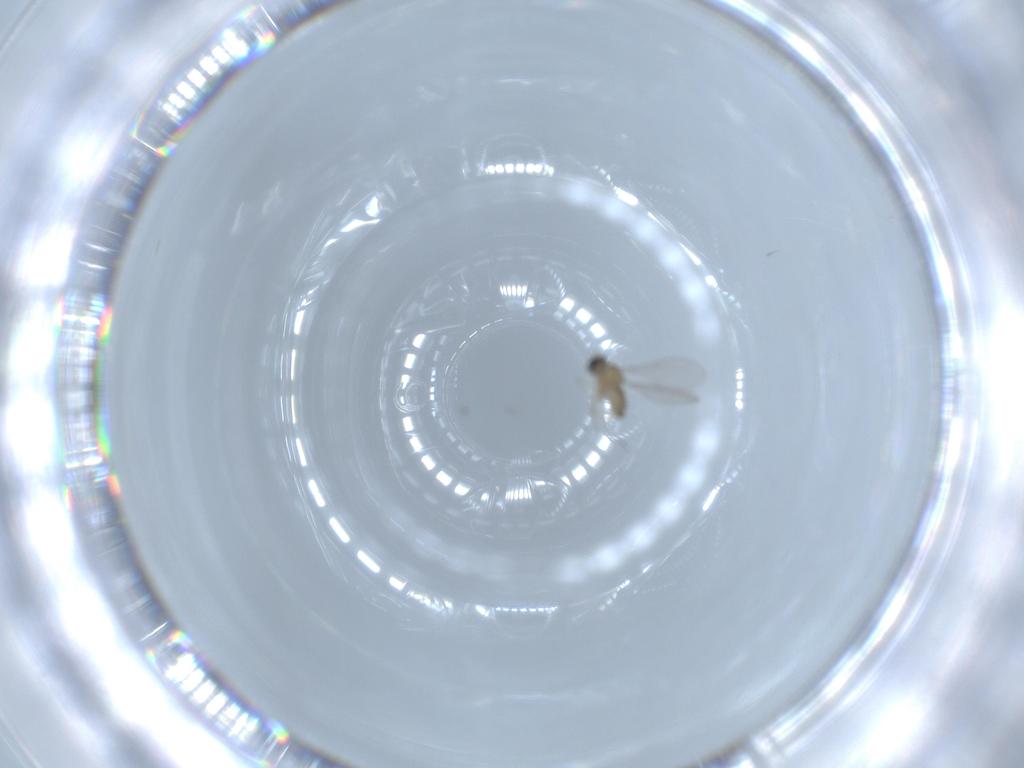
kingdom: Animalia
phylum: Arthropoda
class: Insecta
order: Diptera
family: Cecidomyiidae
